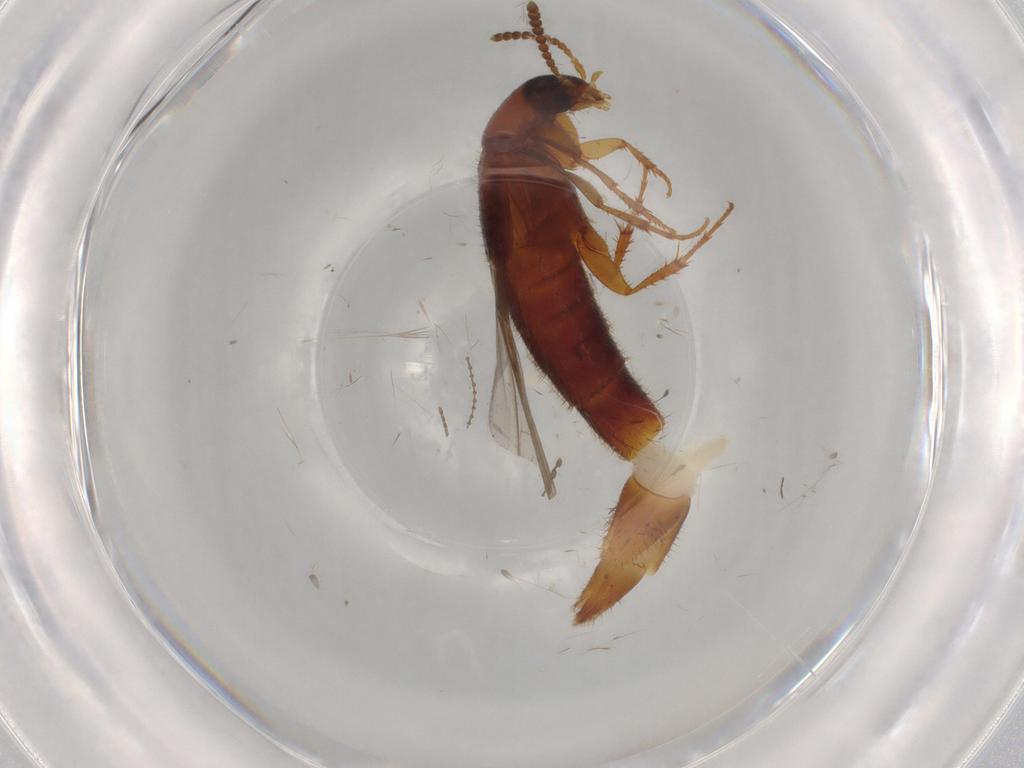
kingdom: Animalia
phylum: Arthropoda
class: Insecta
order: Coleoptera
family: Staphylinidae
